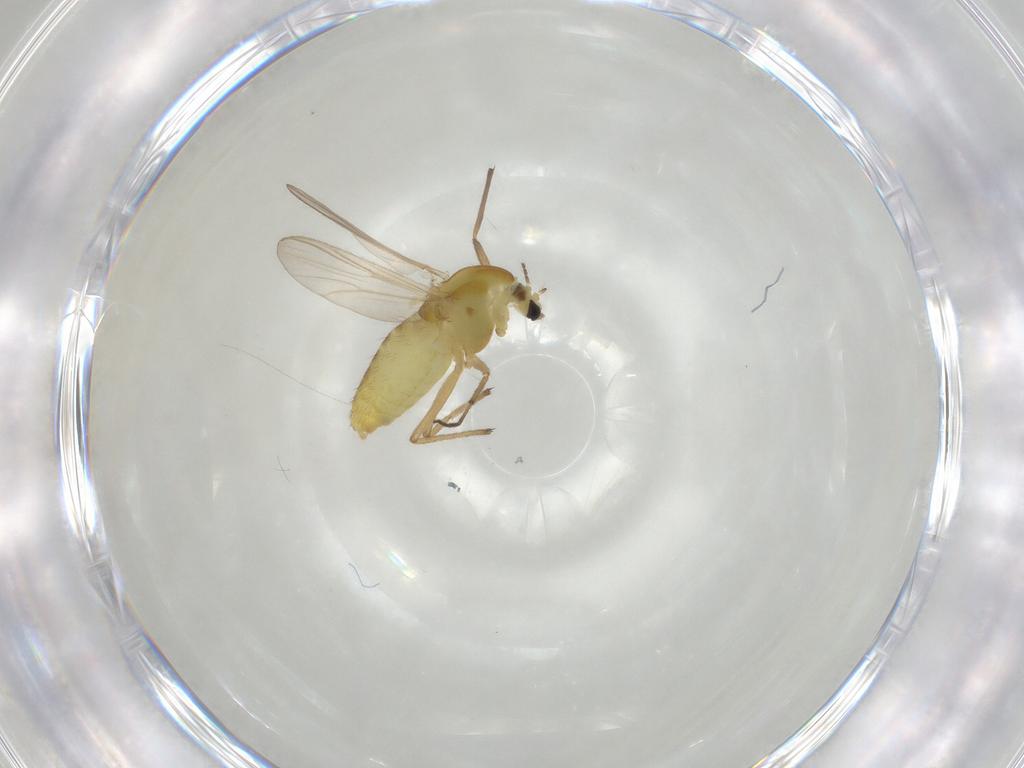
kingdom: Animalia
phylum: Arthropoda
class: Insecta
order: Diptera
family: Chironomidae
